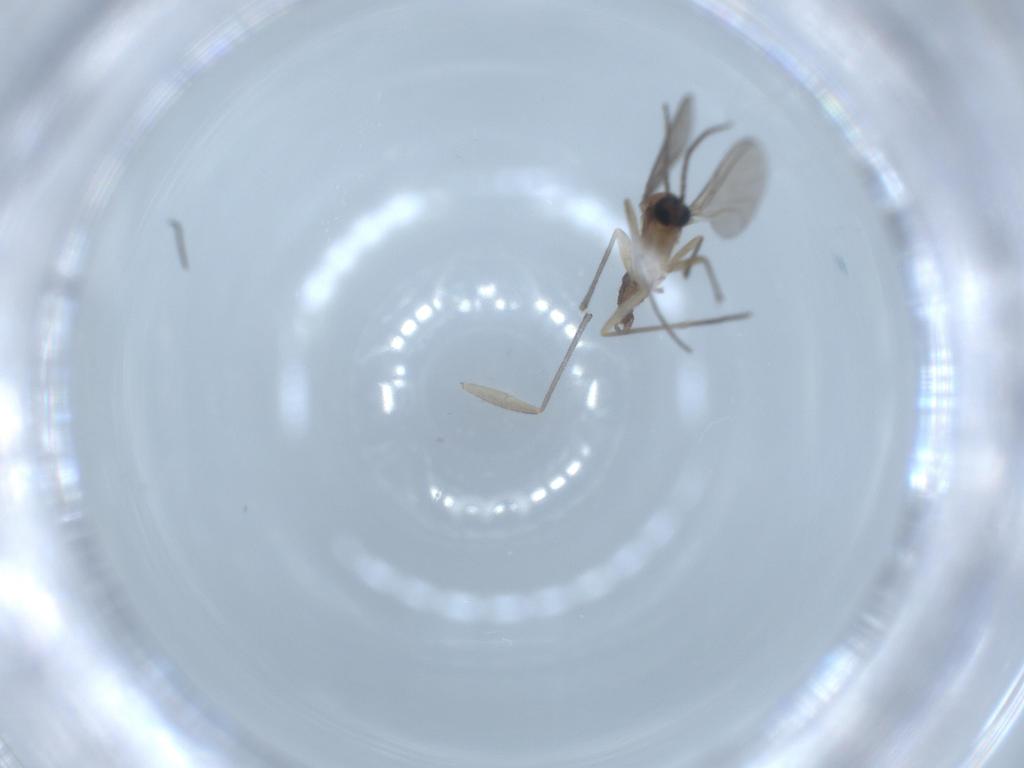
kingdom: Animalia
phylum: Arthropoda
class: Insecta
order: Diptera
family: Sciaridae
